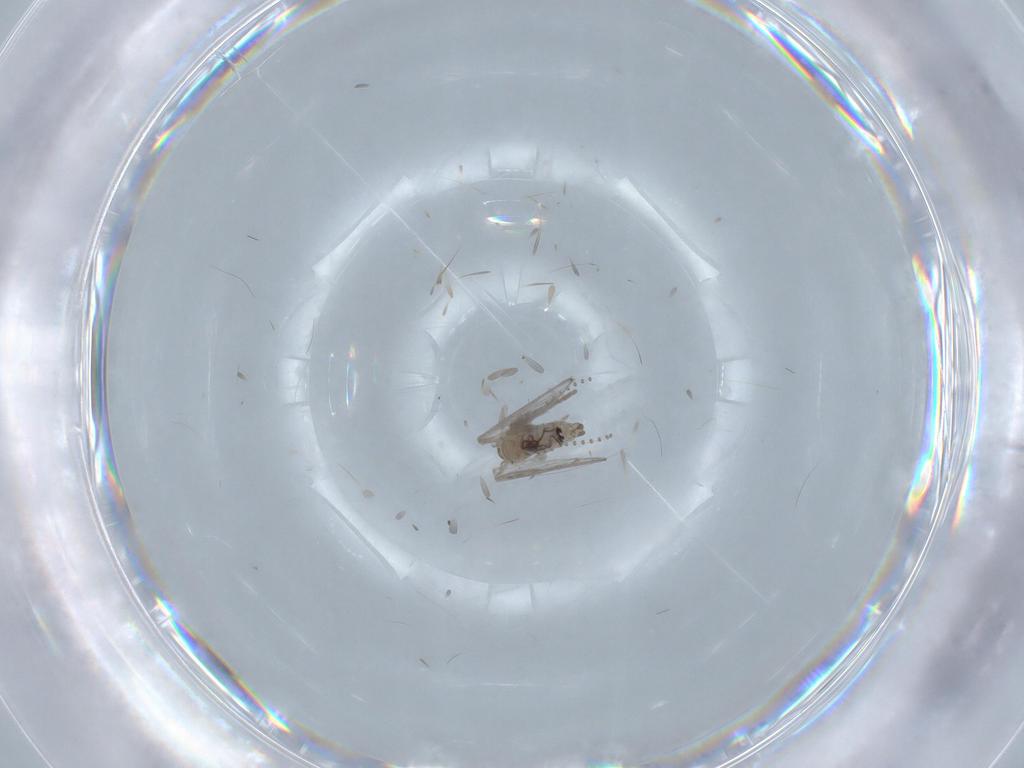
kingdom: Animalia
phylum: Arthropoda
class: Insecta
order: Diptera
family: Psychodidae
